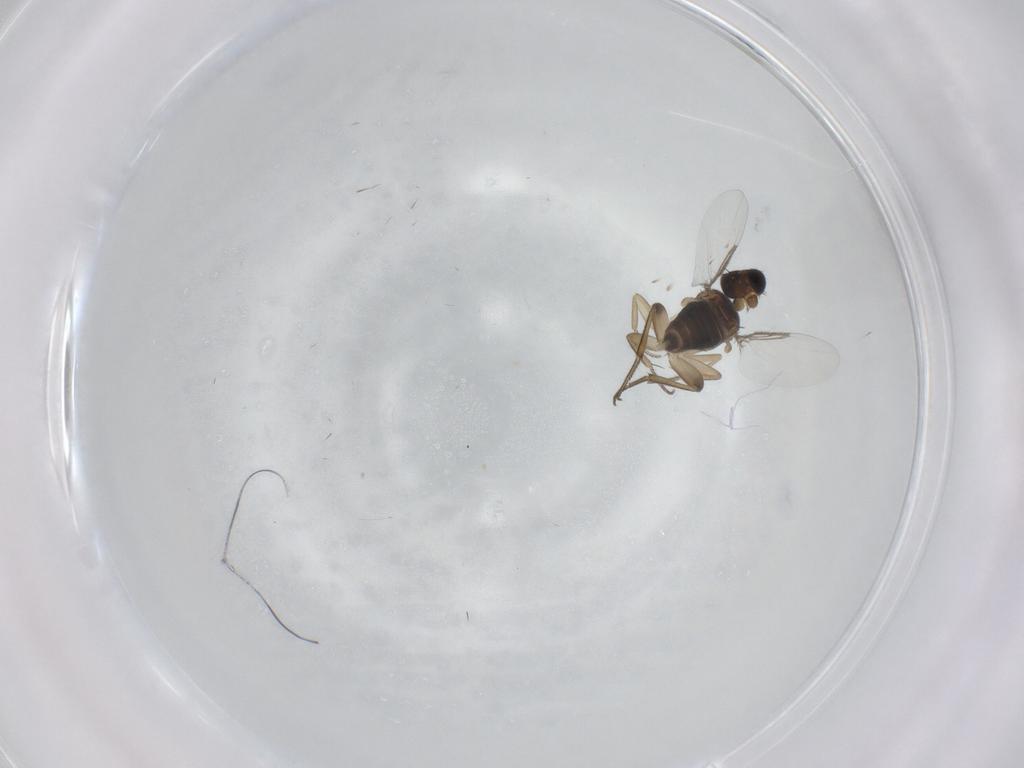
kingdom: Animalia
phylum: Arthropoda
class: Insecta
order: Diptera
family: Phoridae
